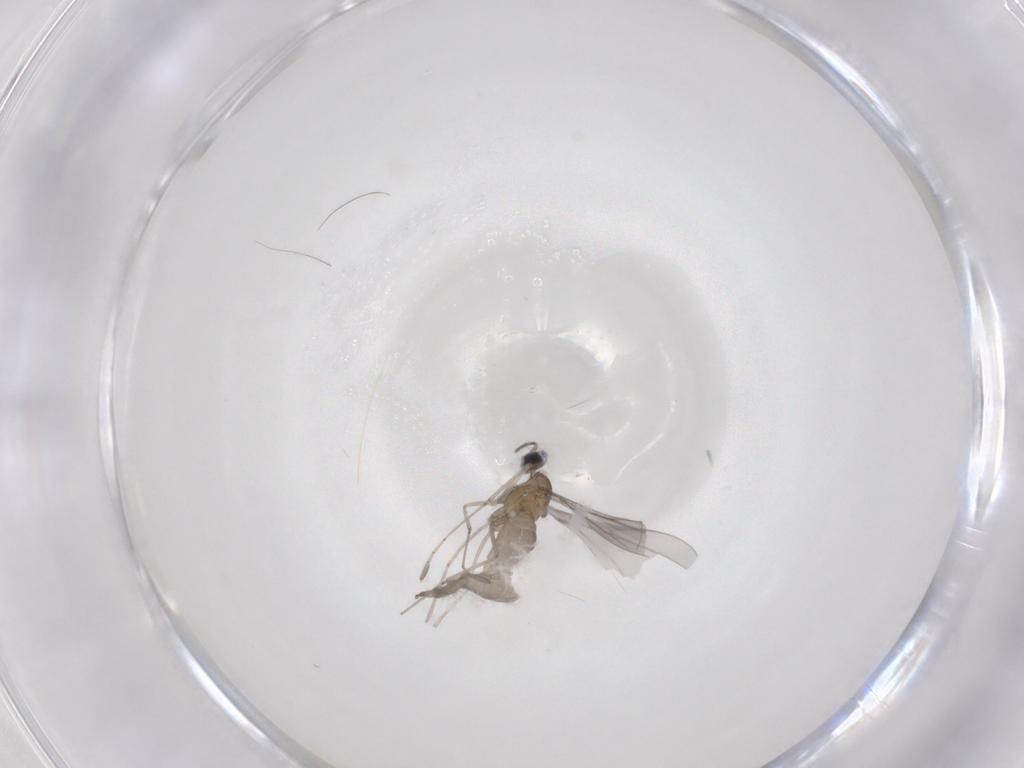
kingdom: Animalia
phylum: Arthropoda
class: Insecta
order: Diptera
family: Cecidomyiidae
